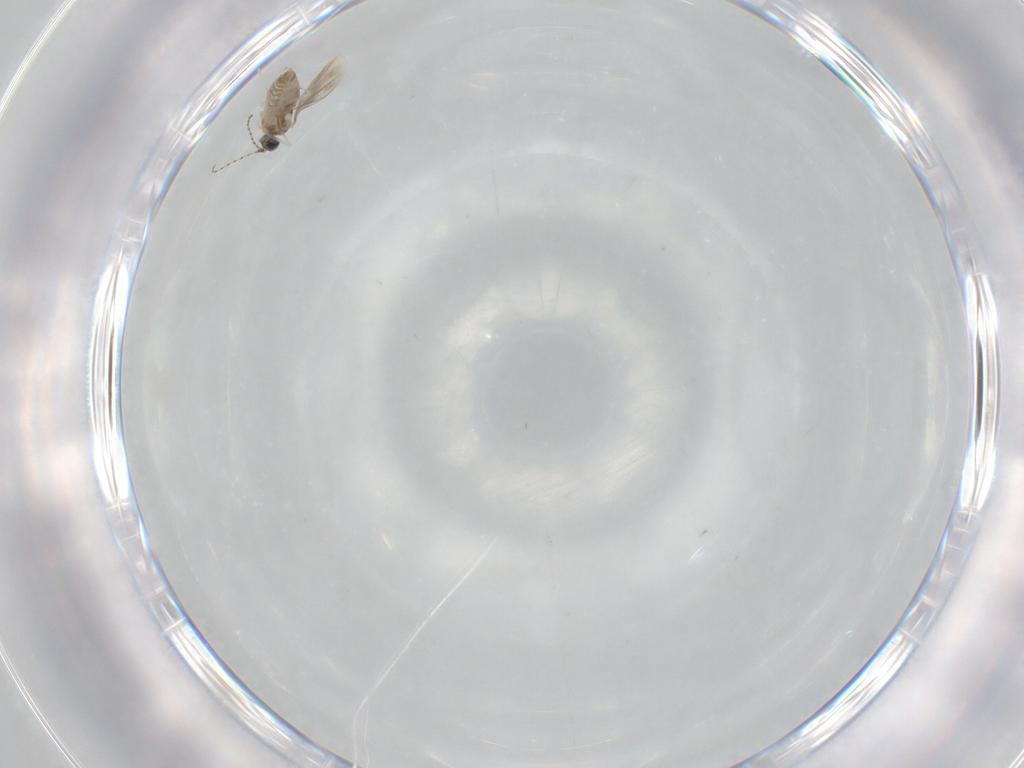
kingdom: Animalia
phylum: Arthropoda
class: Insecta
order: Diptera
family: Cecidomyiidae
